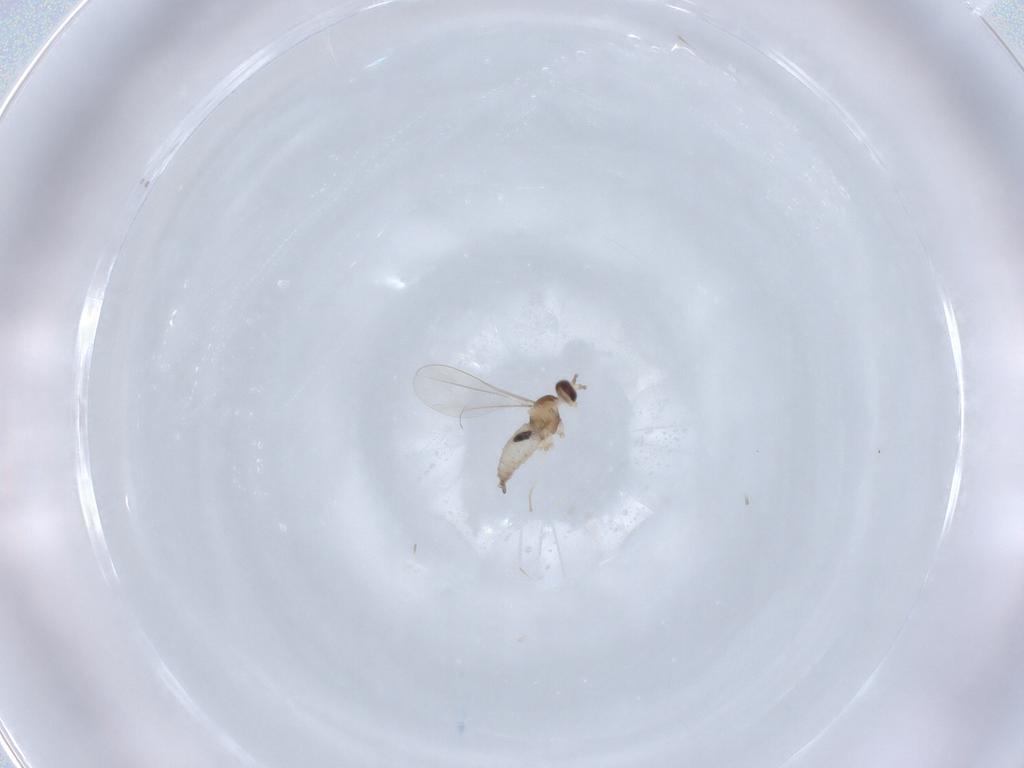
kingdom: Animalia
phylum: Arthropoda
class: Insecta
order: Diptera
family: Cecidomyiidae
